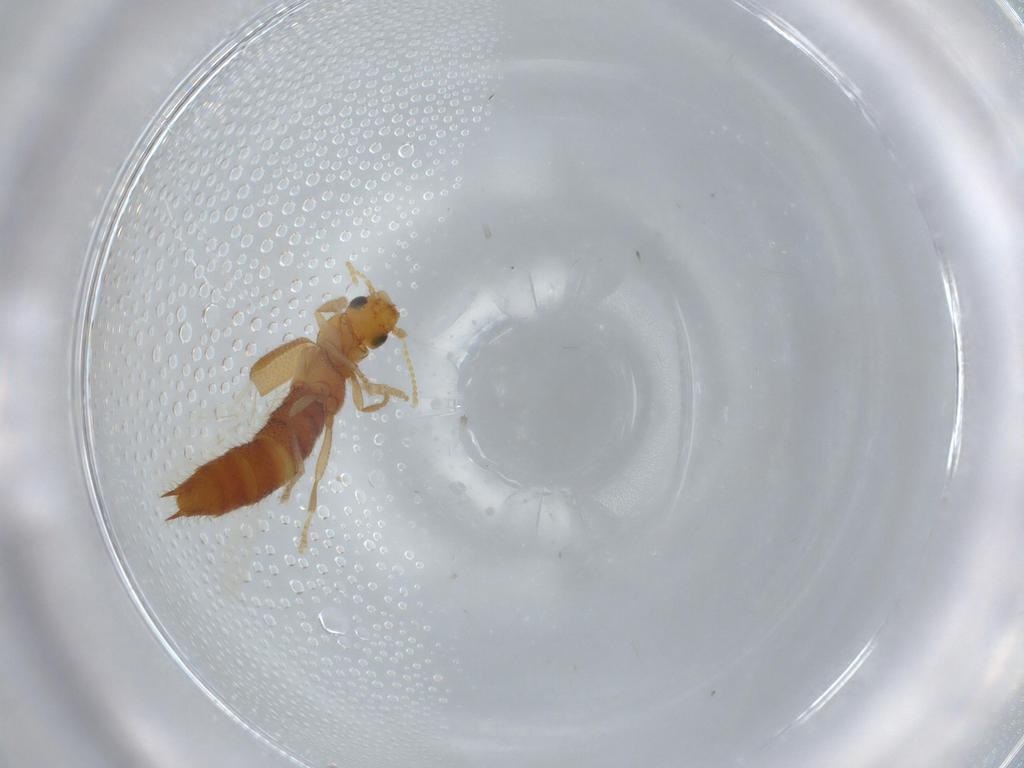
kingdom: Animalia
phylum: Arthropoda
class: Insecta
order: Coleoptera
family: Staphylinidae
